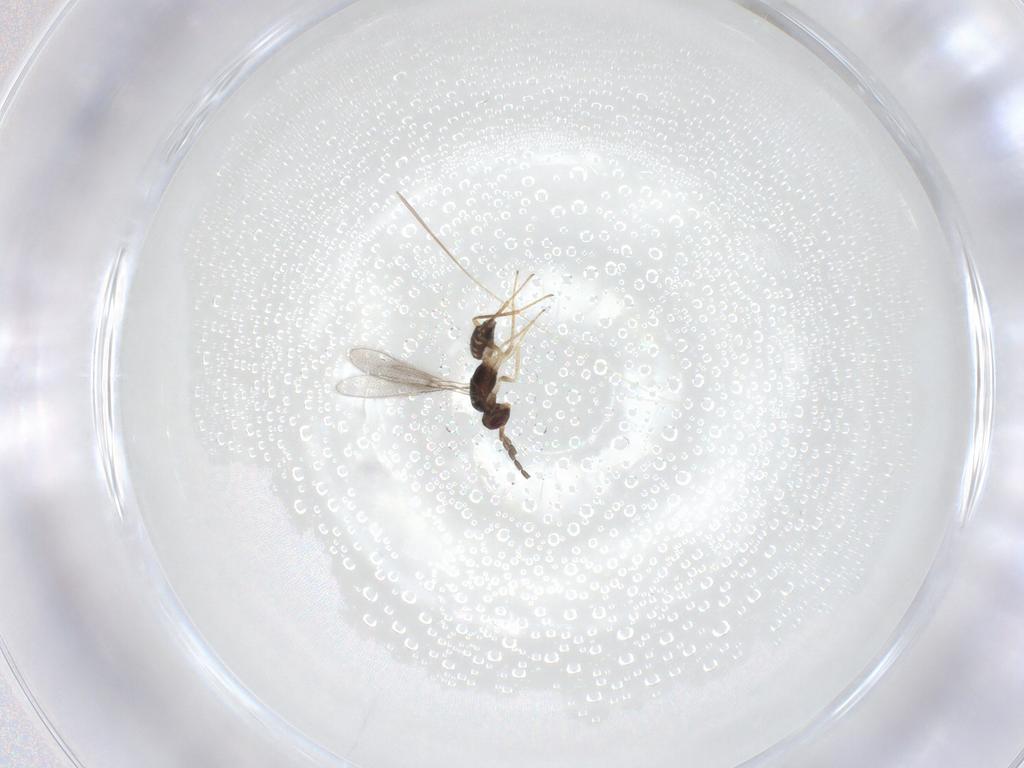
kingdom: Animalia
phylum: Arthropoda
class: Insecta
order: Hymenoptera
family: Mymaridae
